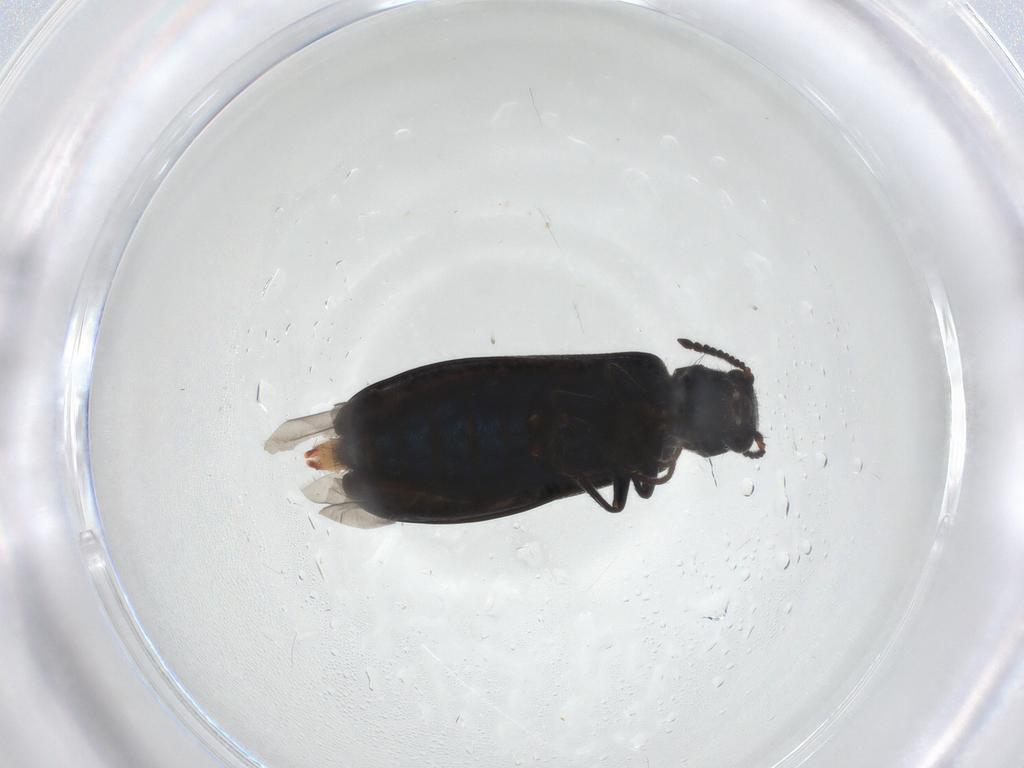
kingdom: Animalia
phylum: Arthropoda
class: Insecta
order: Coleoptera
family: Melyridae
